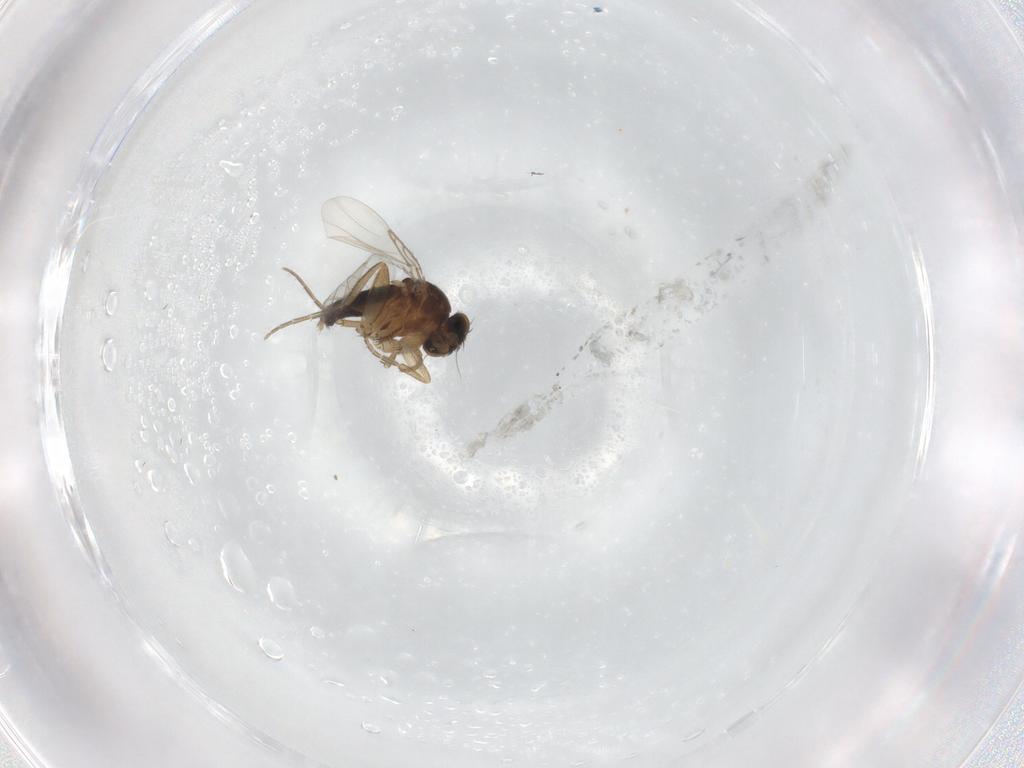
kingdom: Animalia
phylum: Arthropoda
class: Insecta
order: Diptera
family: Phoridae
